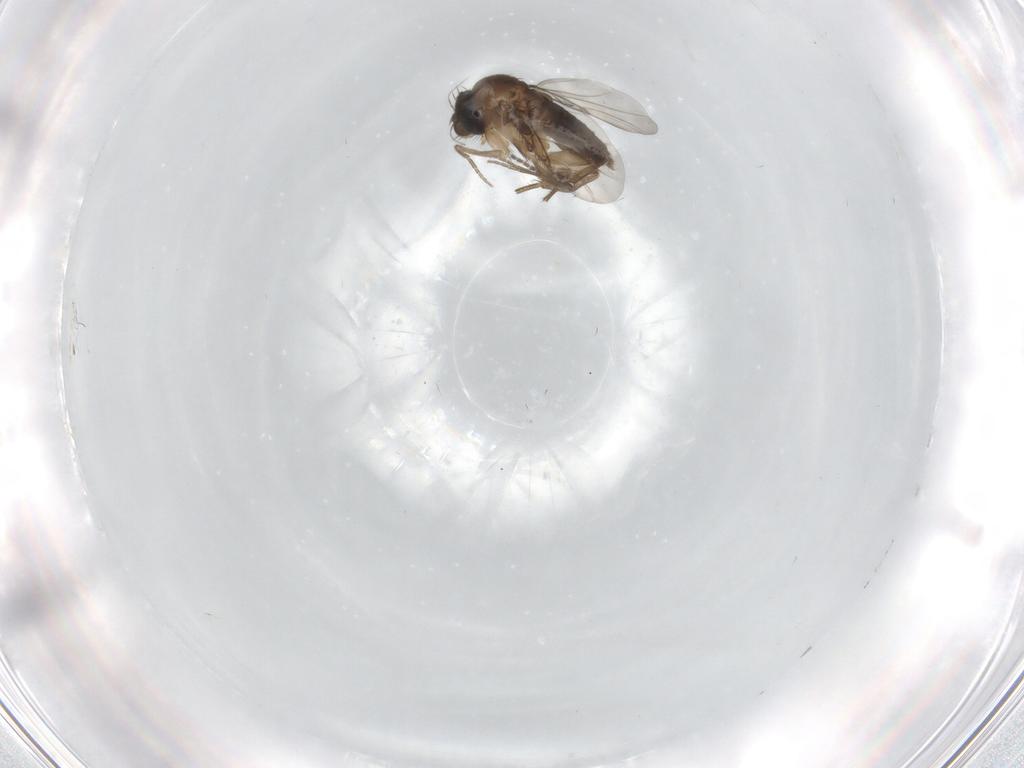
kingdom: Animalia
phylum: Arthropoda
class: Insecta
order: Diptera
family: Phoridae
